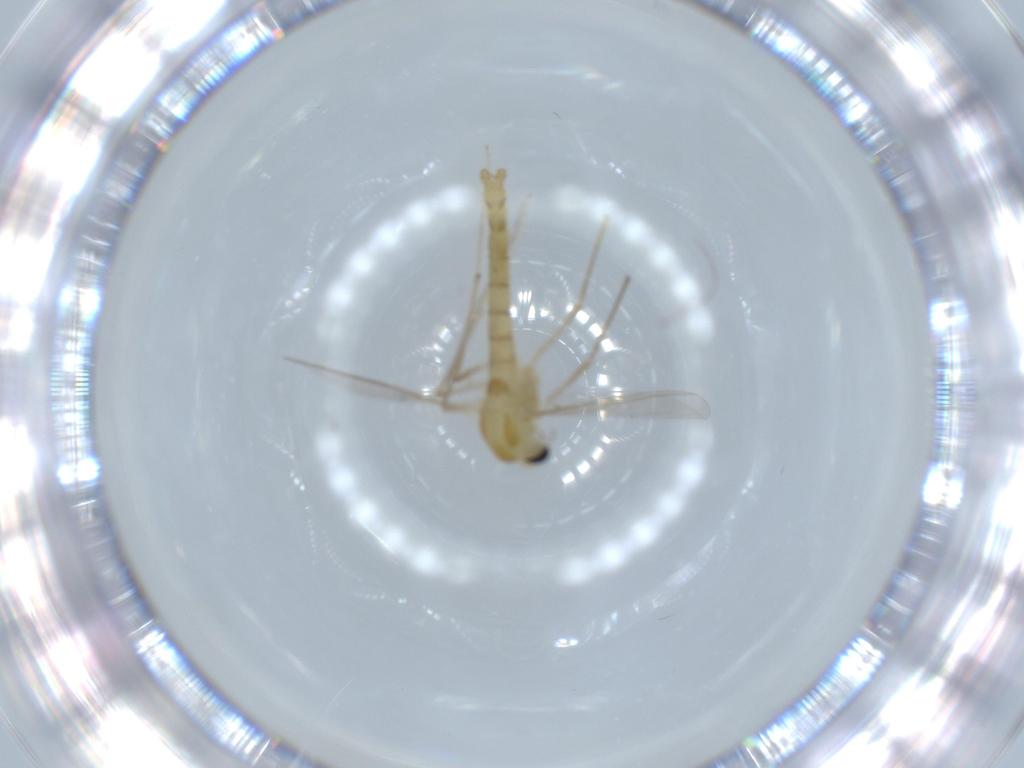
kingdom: Animalia
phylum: Arthropoda
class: Insecta
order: Diptera
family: Chironomidae
